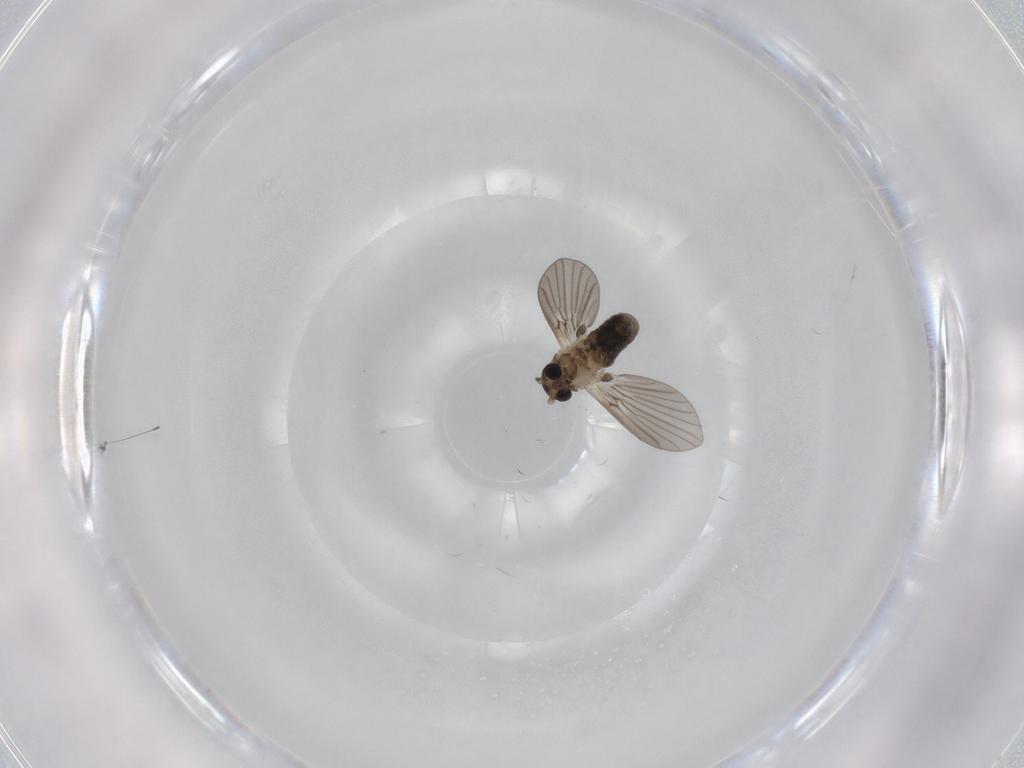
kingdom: Animalia
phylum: Arthropoda
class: Insecta
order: Diptera
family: Psychodidae
